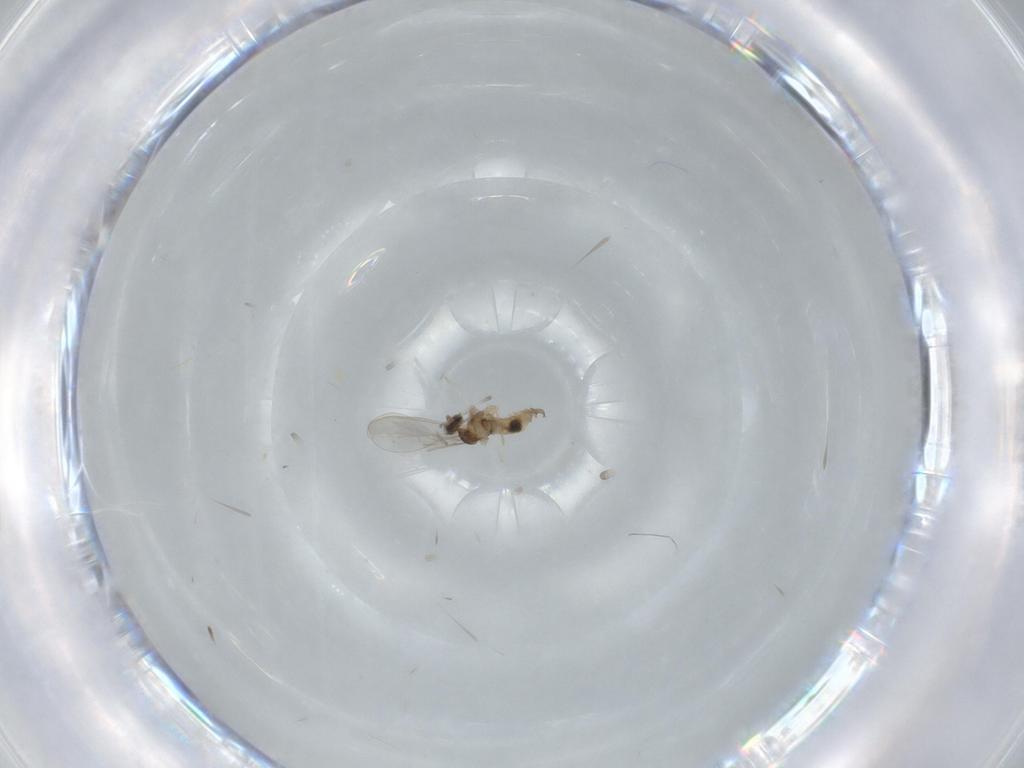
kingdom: Animalia
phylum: Arthropoda
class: Insecta
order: Diptera
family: Cecidomyiidae
